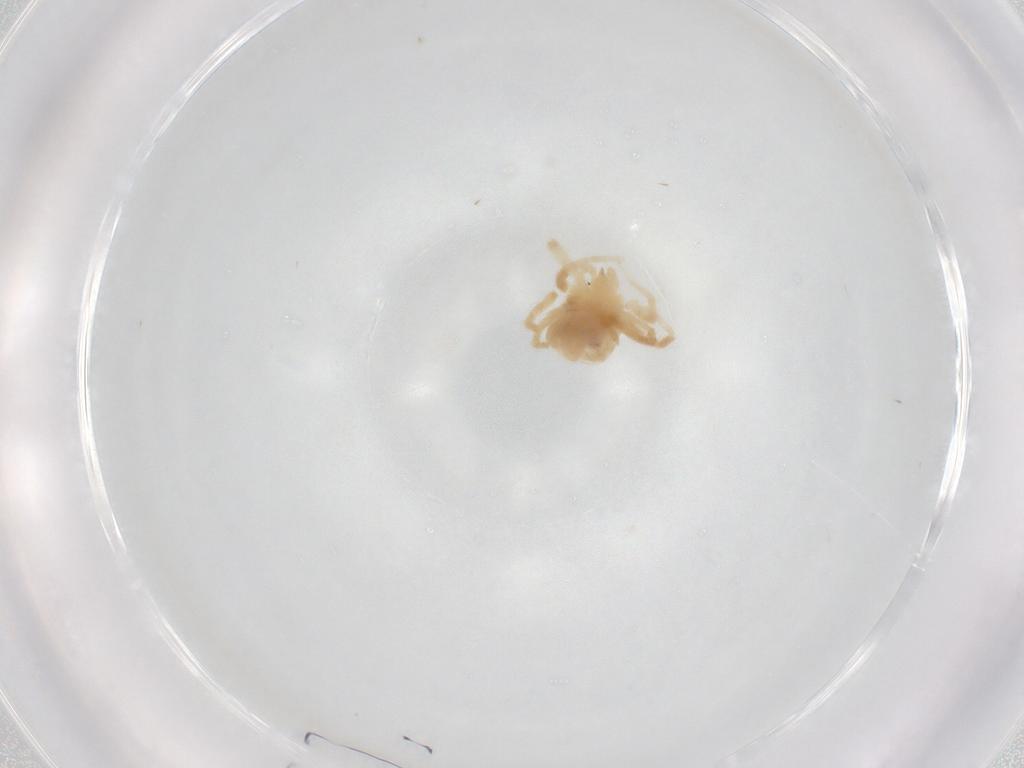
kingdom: Animalia
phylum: Arthropoda
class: Arachnida
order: Trombidiformes
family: Anystidae
